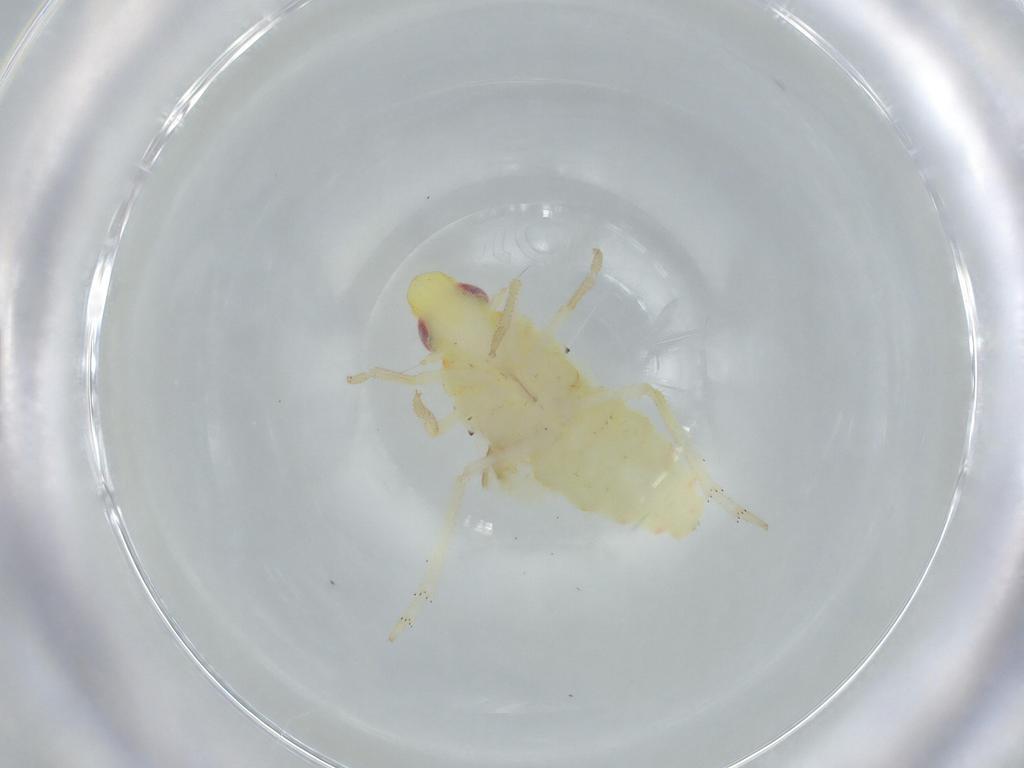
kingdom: Animalia
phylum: Arthropoda
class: Insecta
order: Hemiptera
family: Tropiduchidae
